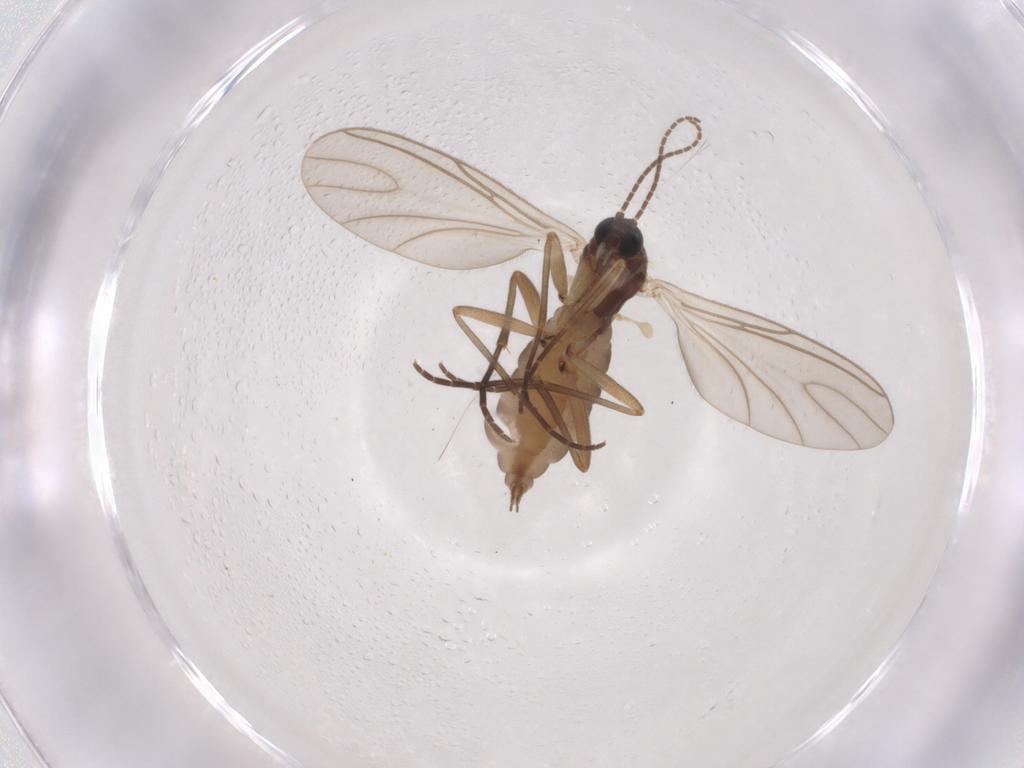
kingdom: Animalia
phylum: Arthropoda
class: Insecta
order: Diptera
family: Sciaridae
